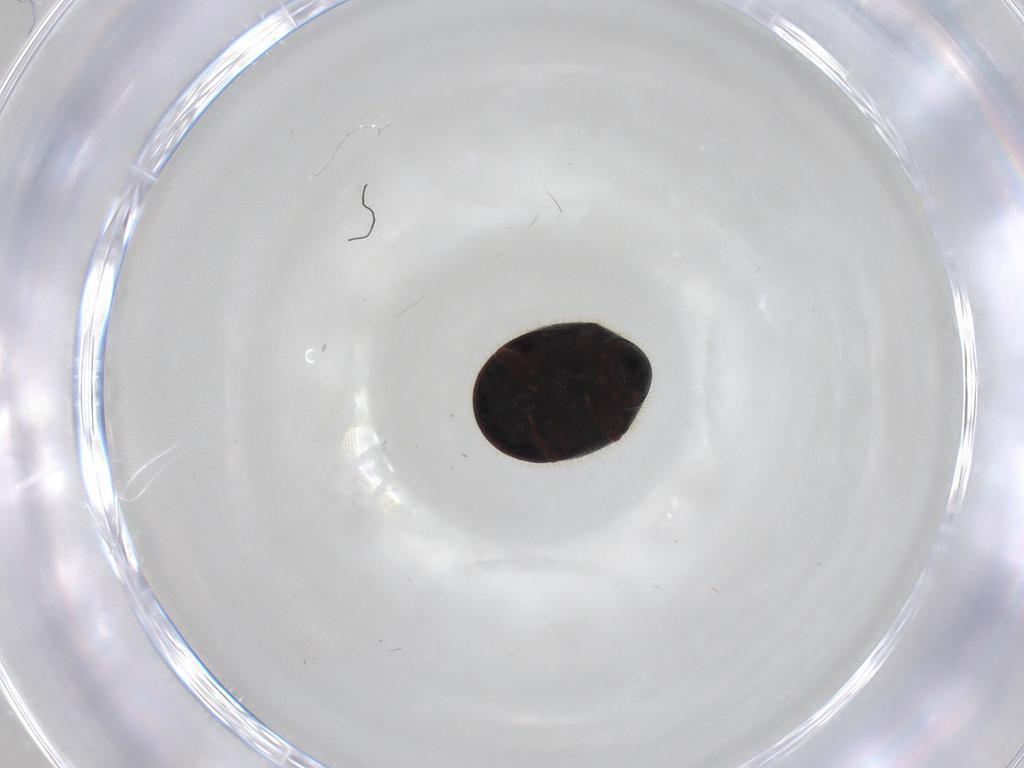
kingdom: Animalia
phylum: Arthropoda
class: Insecta
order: Coleoptera
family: Ptinidae
